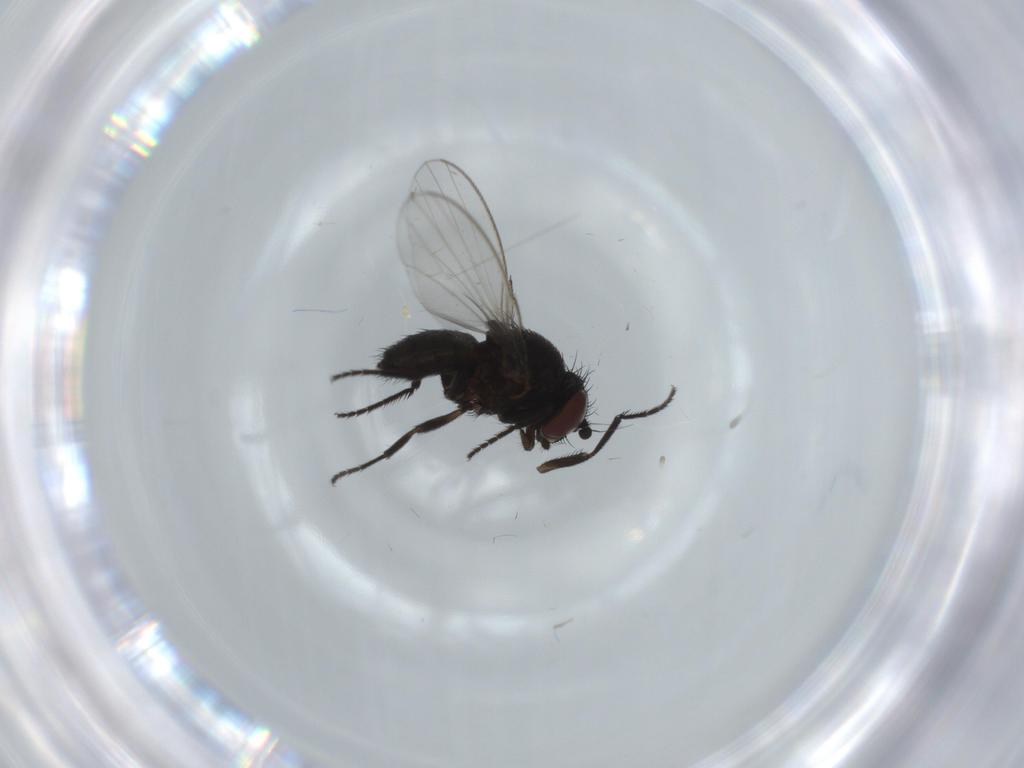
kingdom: Animalia
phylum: Arthropoda
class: Insecta
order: Diptera
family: Milichiidae
